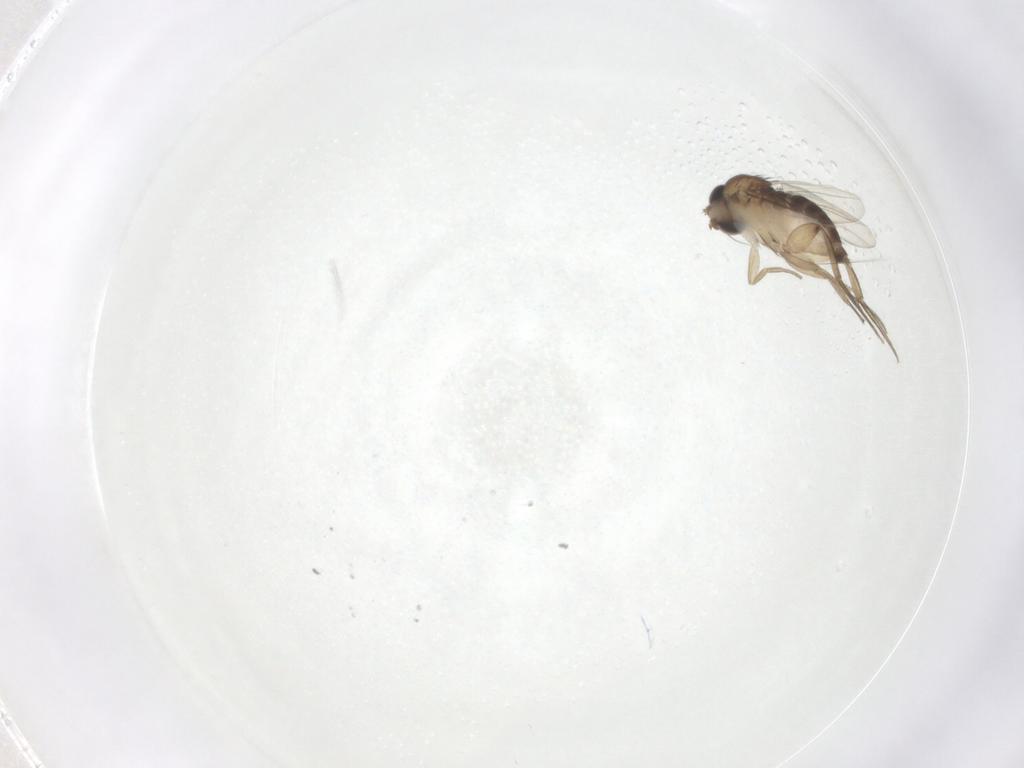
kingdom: Animalia
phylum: Arthropoda
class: Insecta
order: Diptera
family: Phoridae
